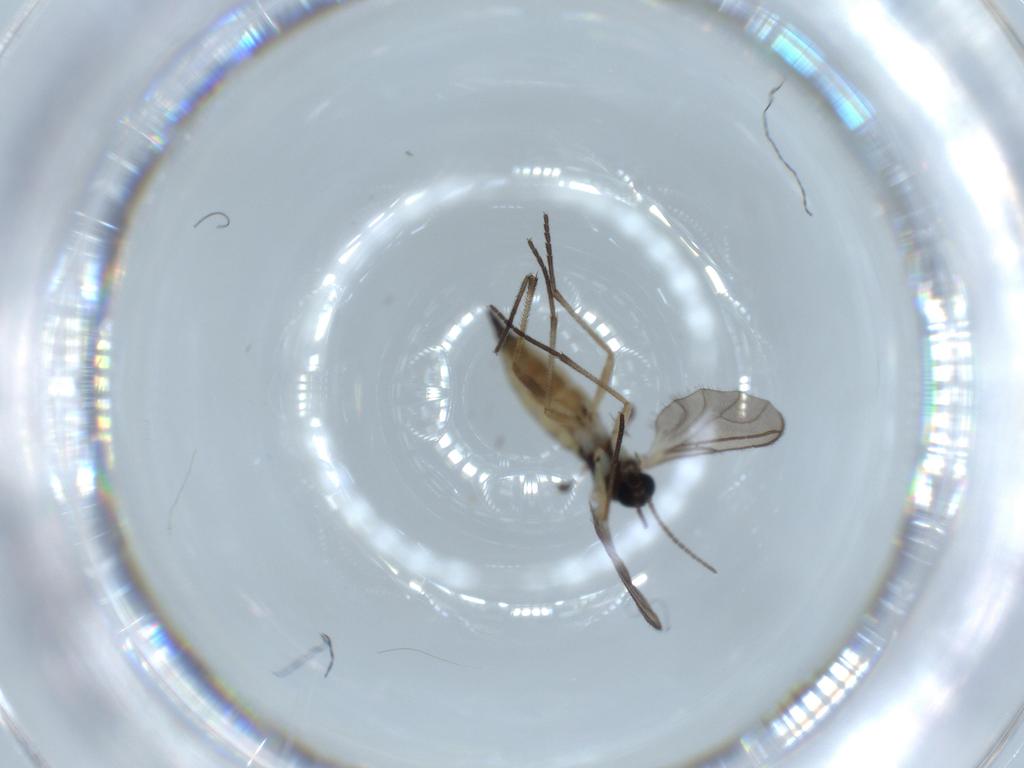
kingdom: Animalia
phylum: Arthropoda
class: Insecta
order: Diptera
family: Sciaridae
